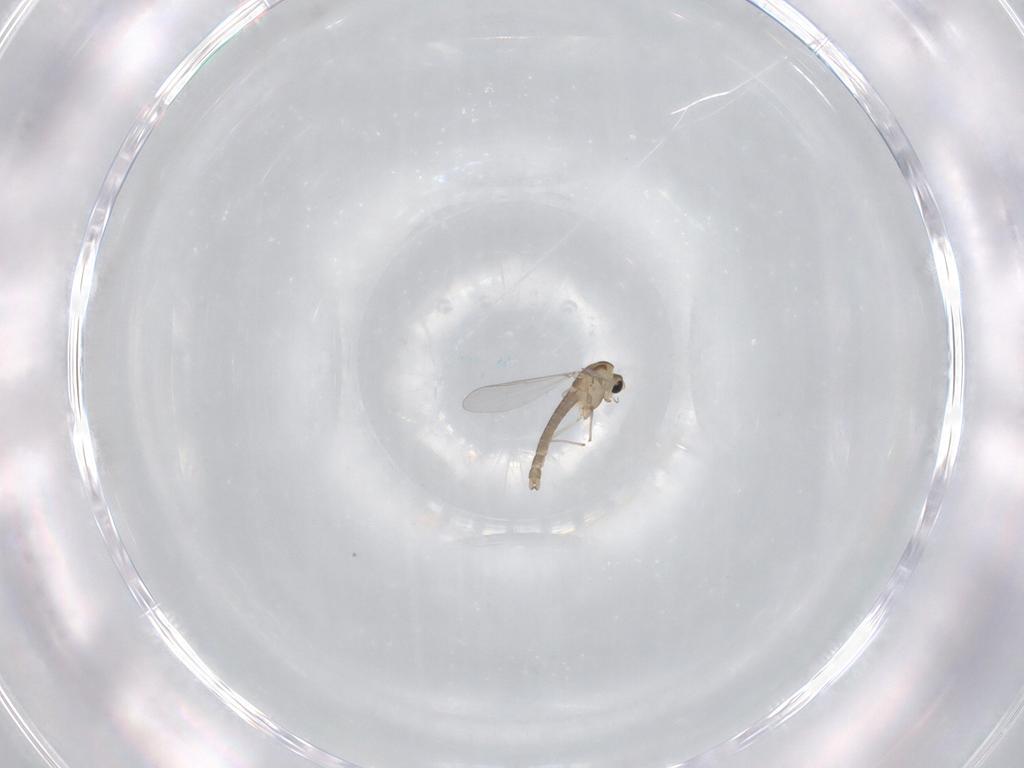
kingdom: Animalia
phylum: Arthropoda
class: Insecta
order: Diptera
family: Chironomidae
